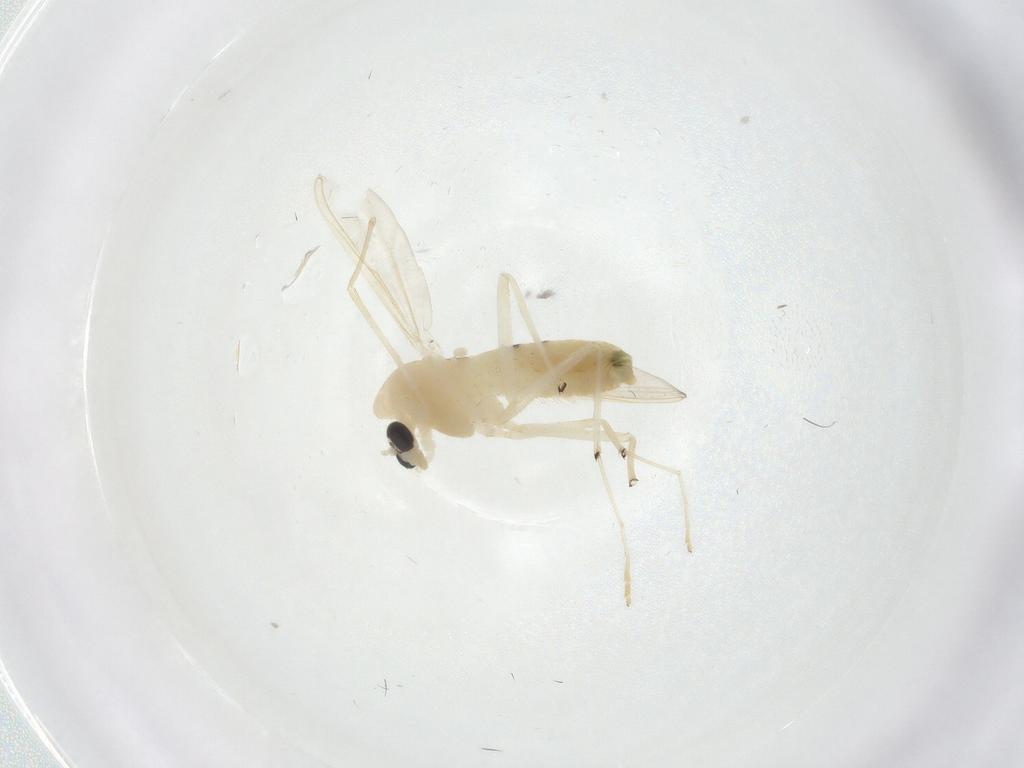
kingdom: Animalia
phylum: Arthropoda
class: Insecta
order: Diptera
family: Chironomidae
